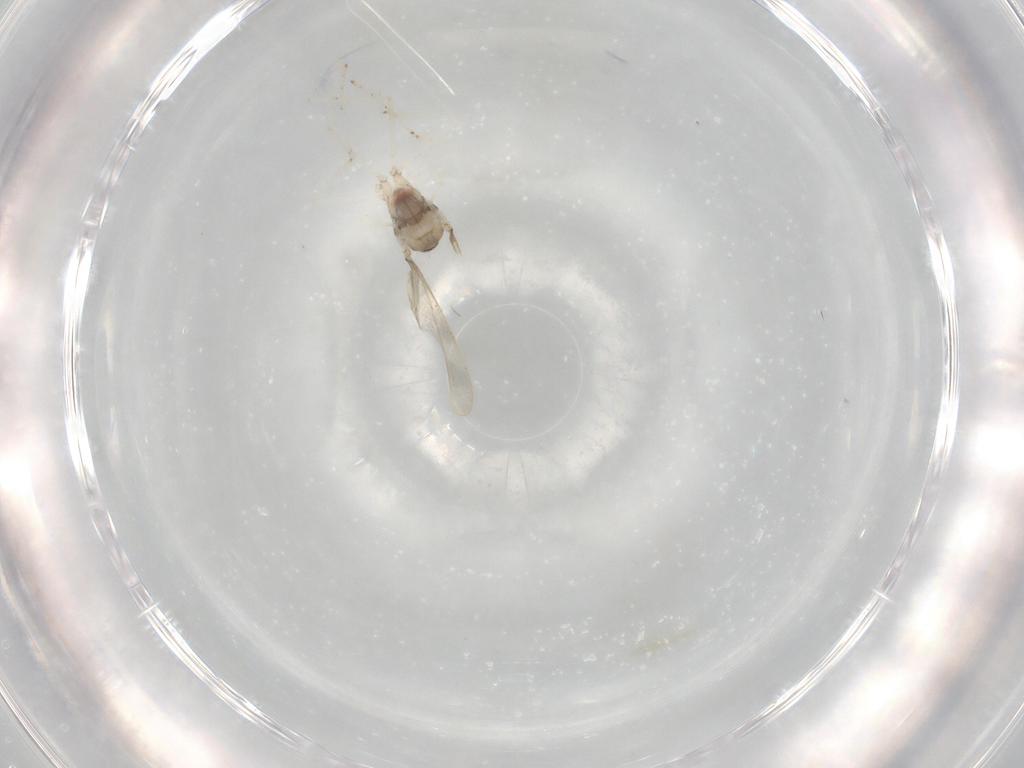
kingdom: Animalia
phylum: Arthropoda
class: Insecta
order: Diptera
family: Cecidomyiidae
